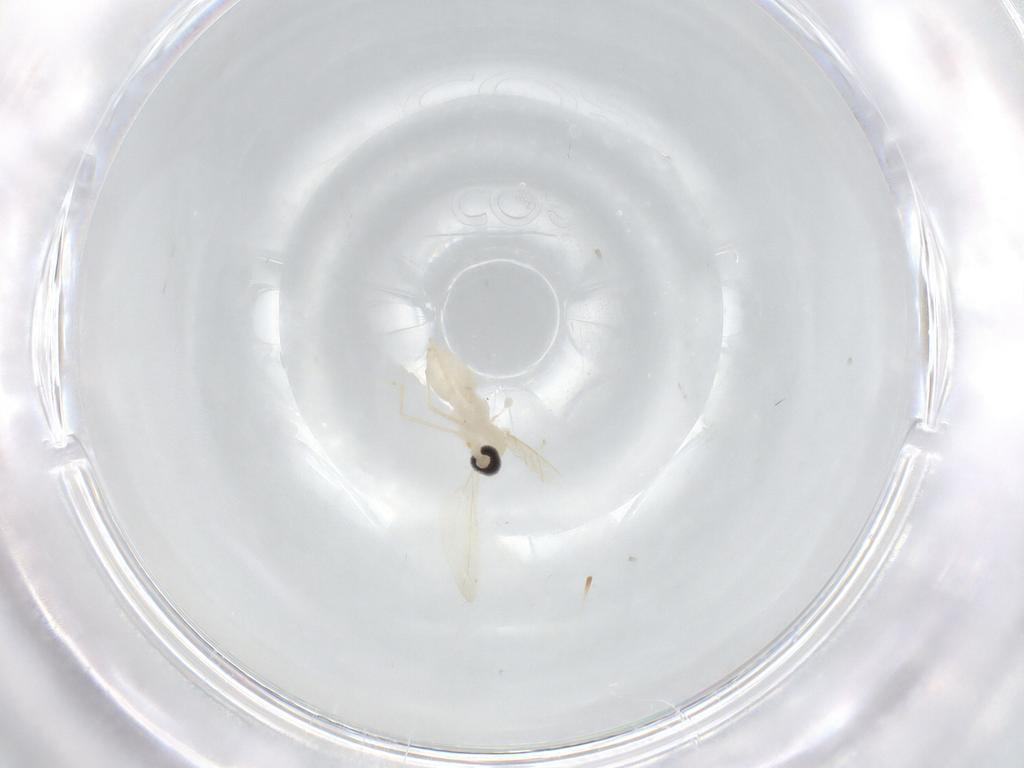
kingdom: Animalia
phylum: Arthropoda
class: Insecta
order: Diptera
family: Cecidomyiidae
